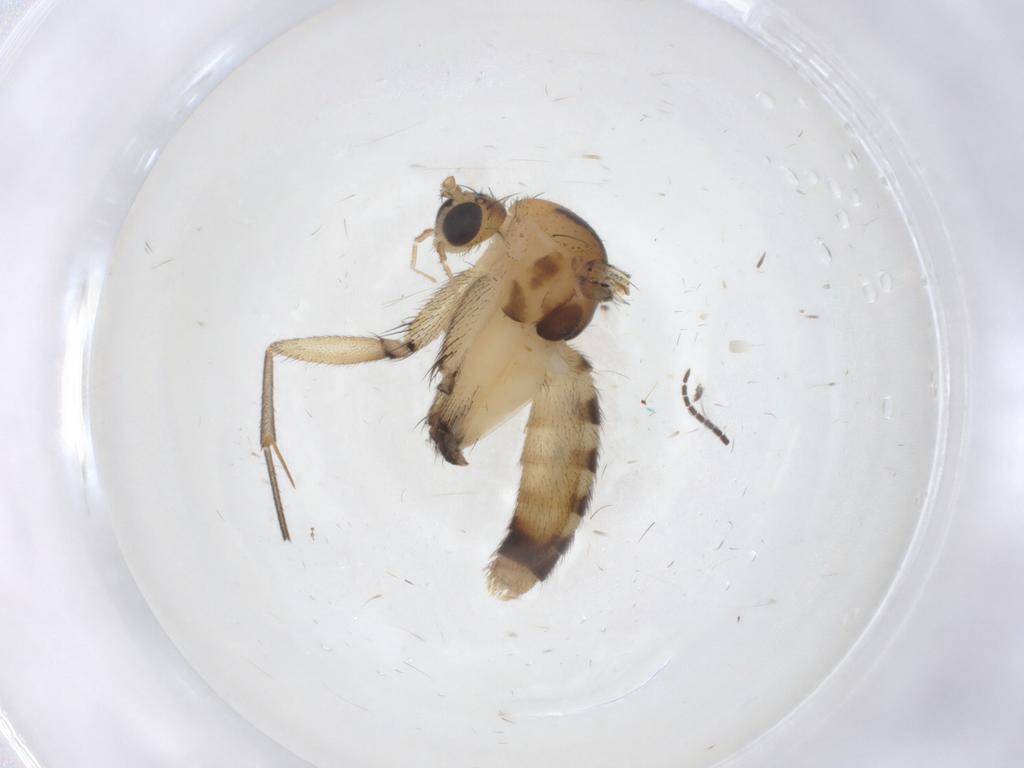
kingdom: Animalia
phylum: Arthropoda
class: Insecta
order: Diptera
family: Mycetophilidae
